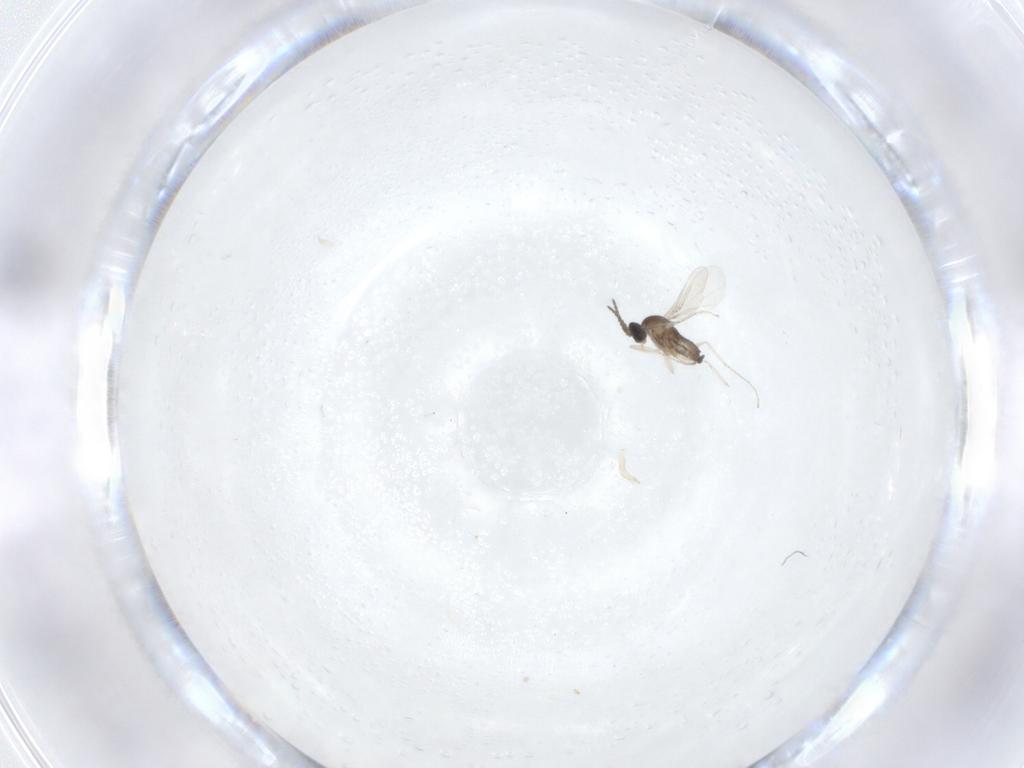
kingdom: Animalia
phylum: Arthropoda
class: Insecta
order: Diptera
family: Cecidomyiidae
